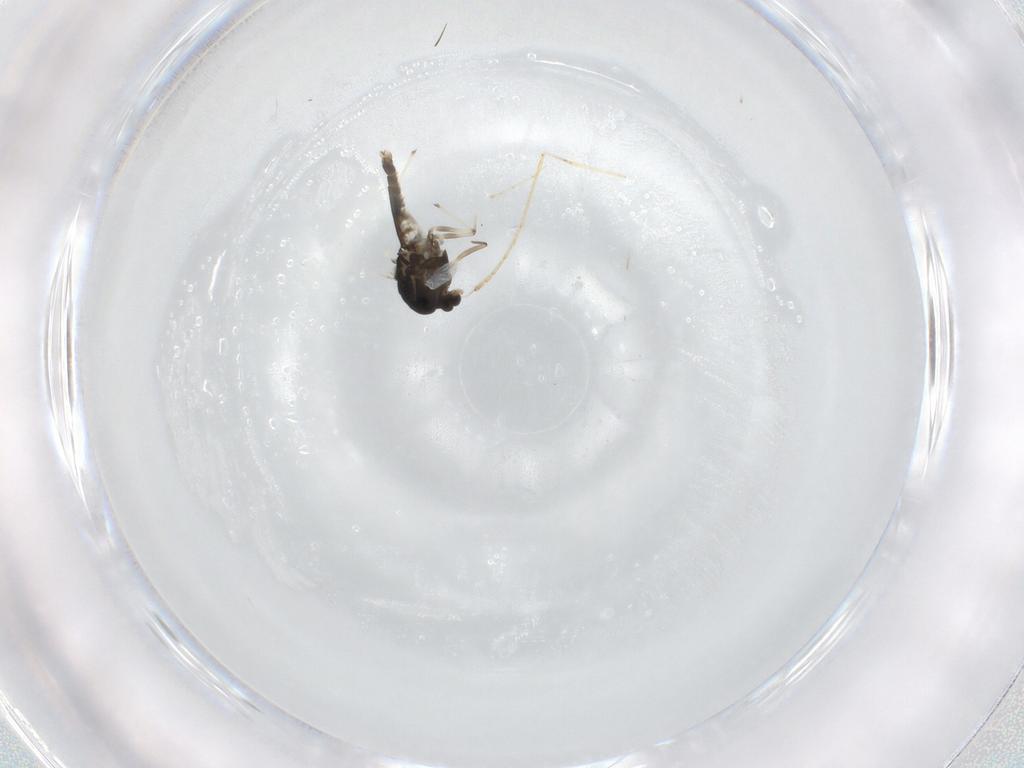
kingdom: Animalia
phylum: Arthropoda
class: Insecta
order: Diptera
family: Chironomidae
